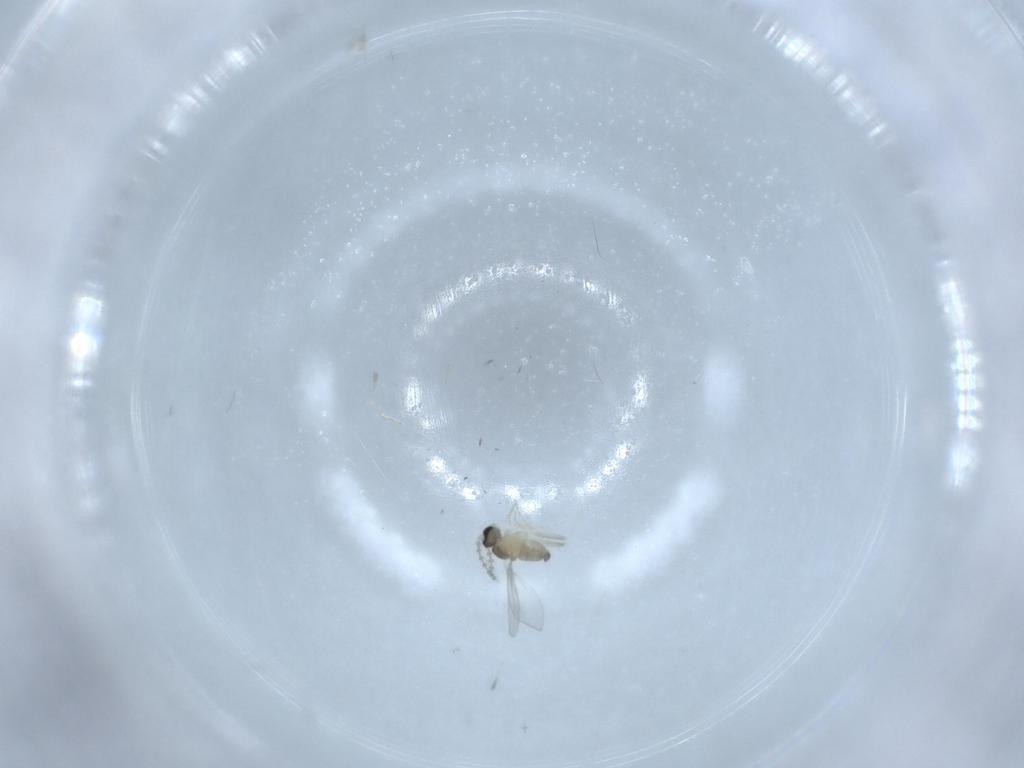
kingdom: Animalia
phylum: Arthropoda
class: Insecta
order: Diptera
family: Cecidomyiidae
